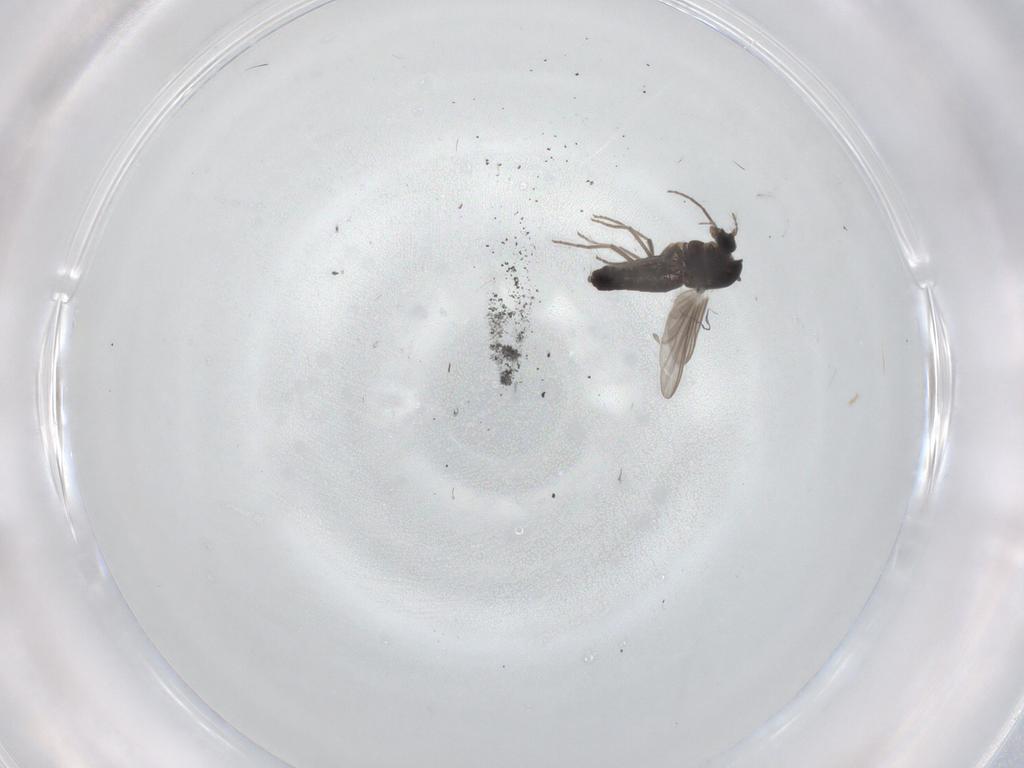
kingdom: Animalia
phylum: Arthropoda
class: Insecta
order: Diptera
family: Chironomidae
